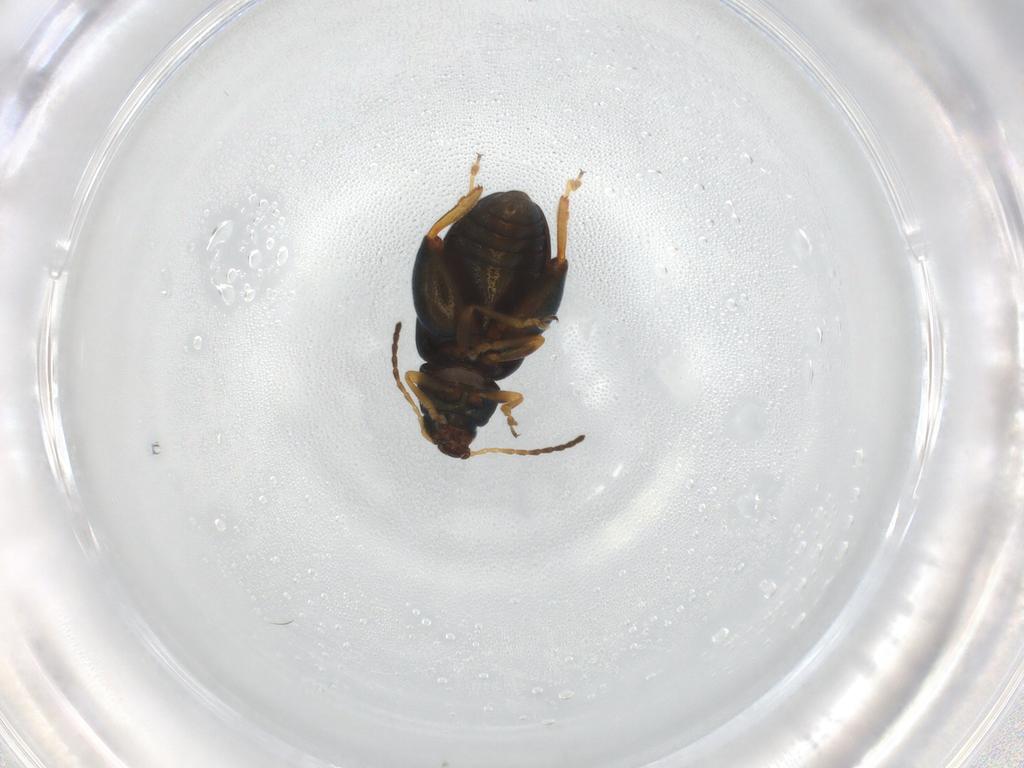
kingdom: Animalia
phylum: Arthropoda
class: Insecta
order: Coleoptera
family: Chrysomelidae
